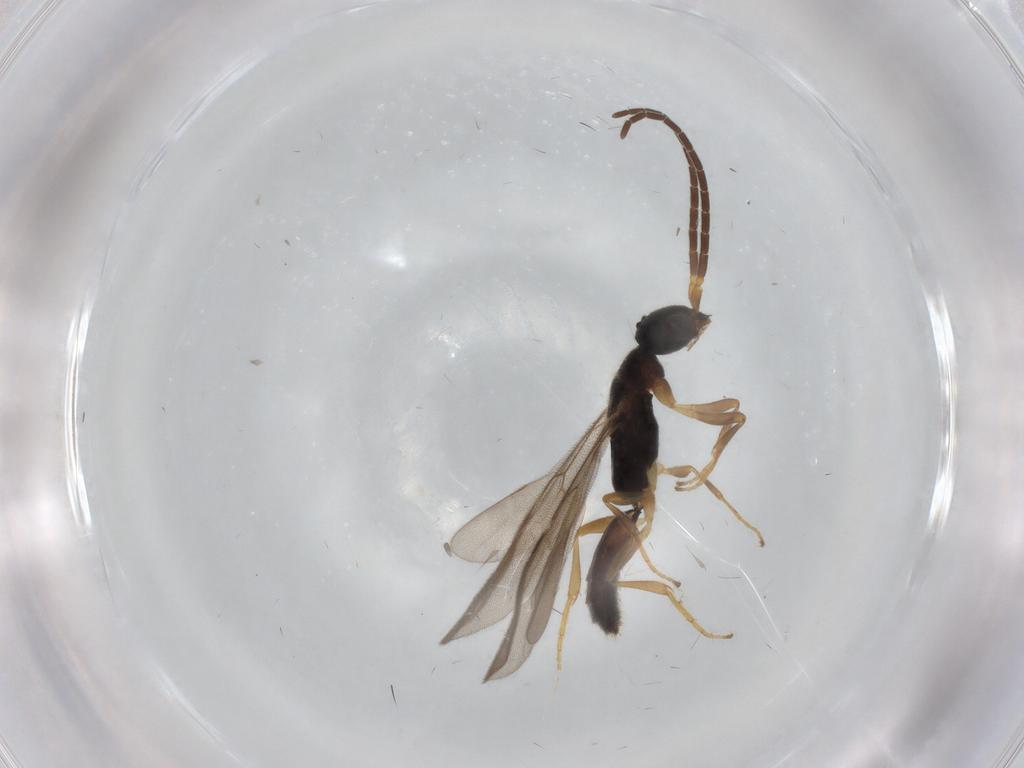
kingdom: Animalia
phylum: Arthropoda
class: Insecta
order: Hymenoptera
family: Bethylidae
